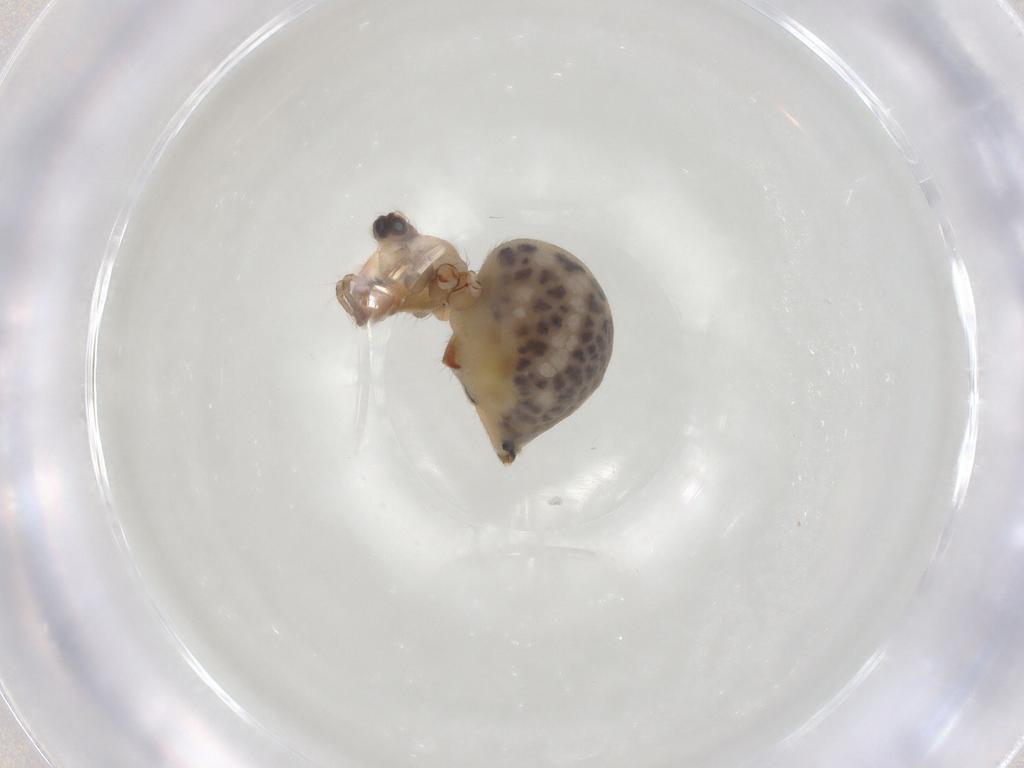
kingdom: Animalia
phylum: Arthropoda
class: Arachnida
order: Araneae
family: Pholcidae
